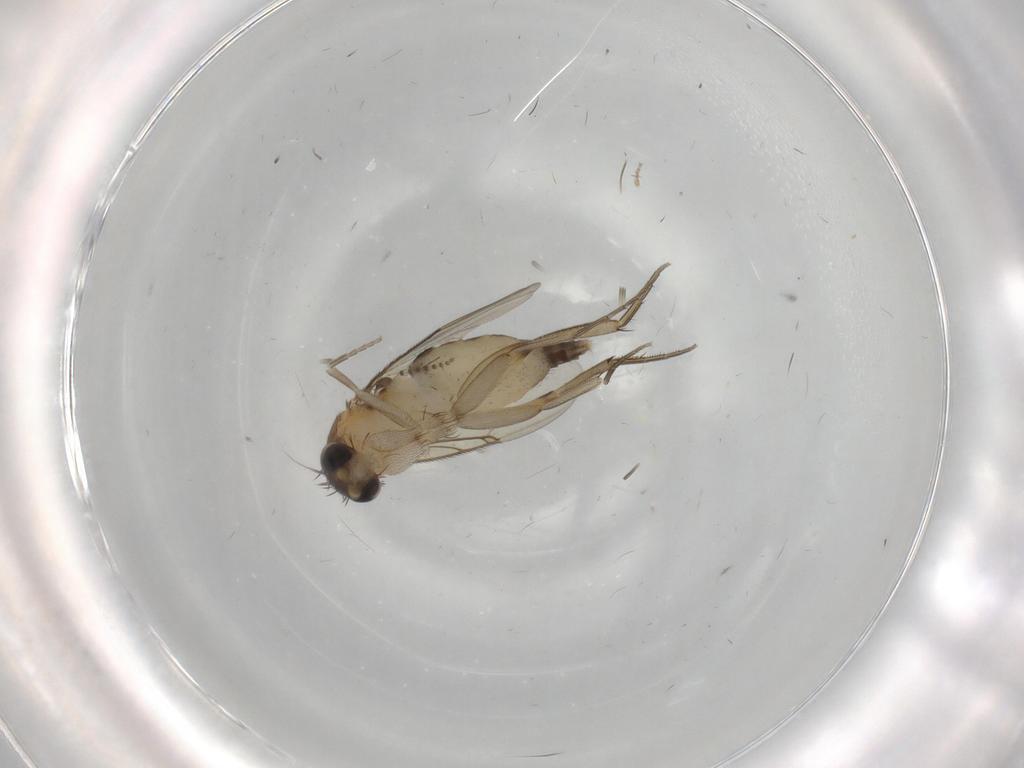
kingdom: Animalia
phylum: Arthropoda
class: Insecta
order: Diptera
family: Phoridae
